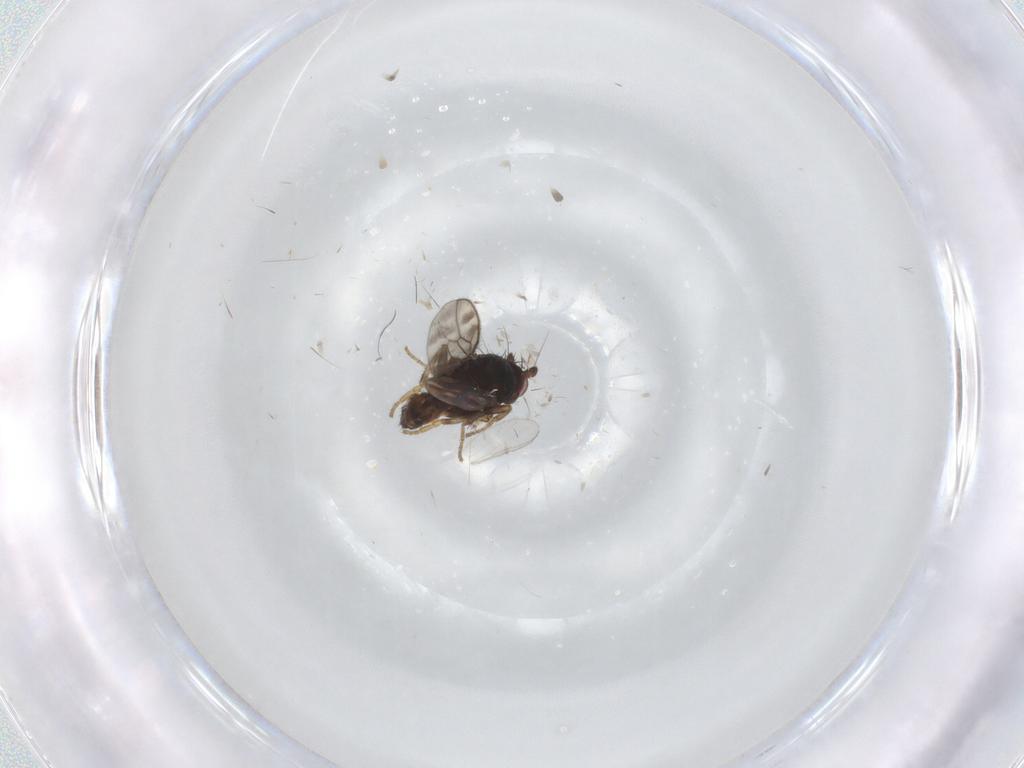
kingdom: Animalia
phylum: Arthropoda
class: Insecta
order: Diptera
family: Sphaeroceridae
